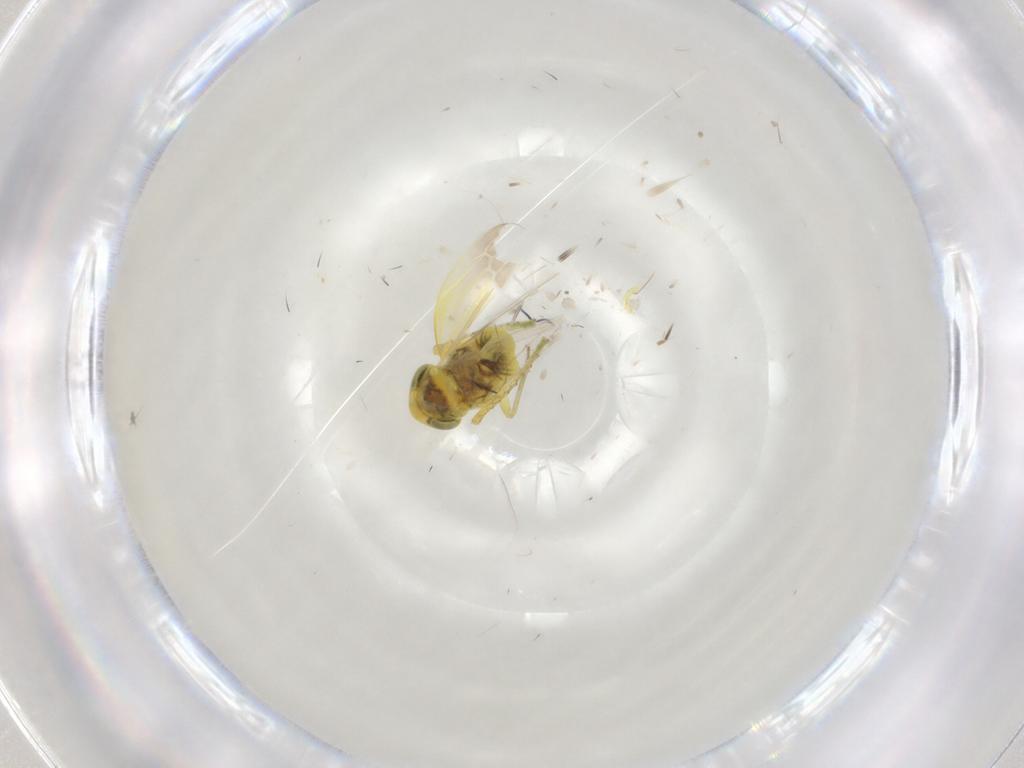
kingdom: Animalia
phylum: Arthropoda
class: Insecta
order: Hemiptera
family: Cicadellidae
